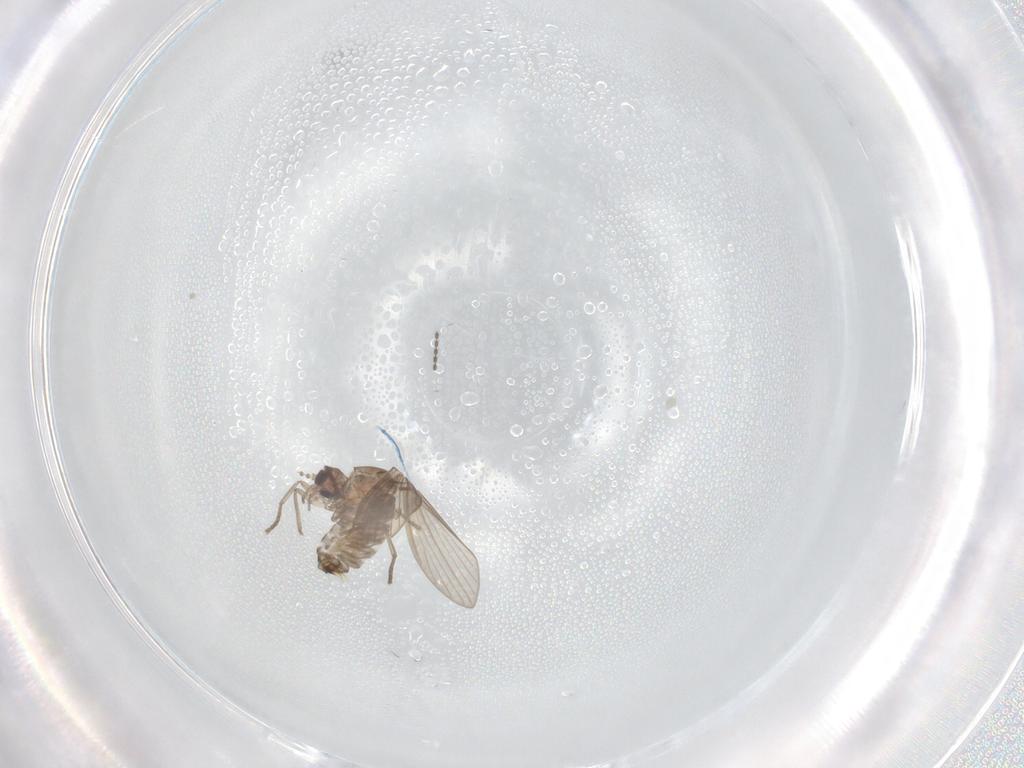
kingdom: Animalia
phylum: Arthropoda
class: Insecta
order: Diptera
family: Sciaridae
